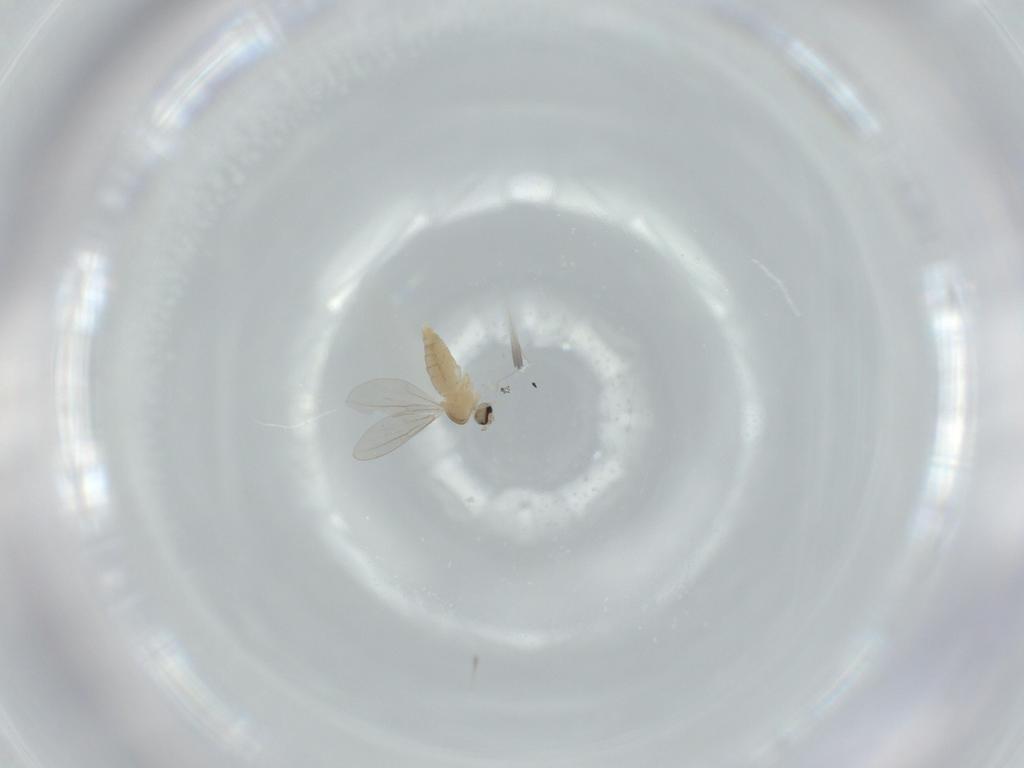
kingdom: Animalia
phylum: Arthropoda
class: Insecta
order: Diptera
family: Cecidomyiidae
